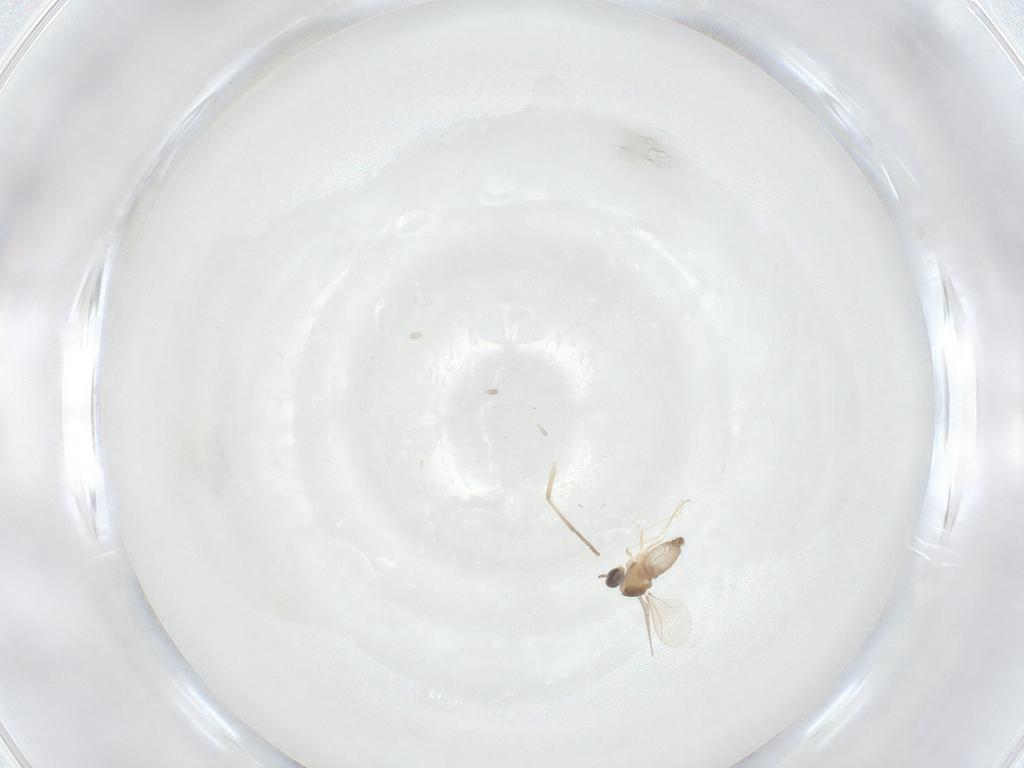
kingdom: Animalia
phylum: Arthropoda
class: Insecta
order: Diptera
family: Psychodidae
